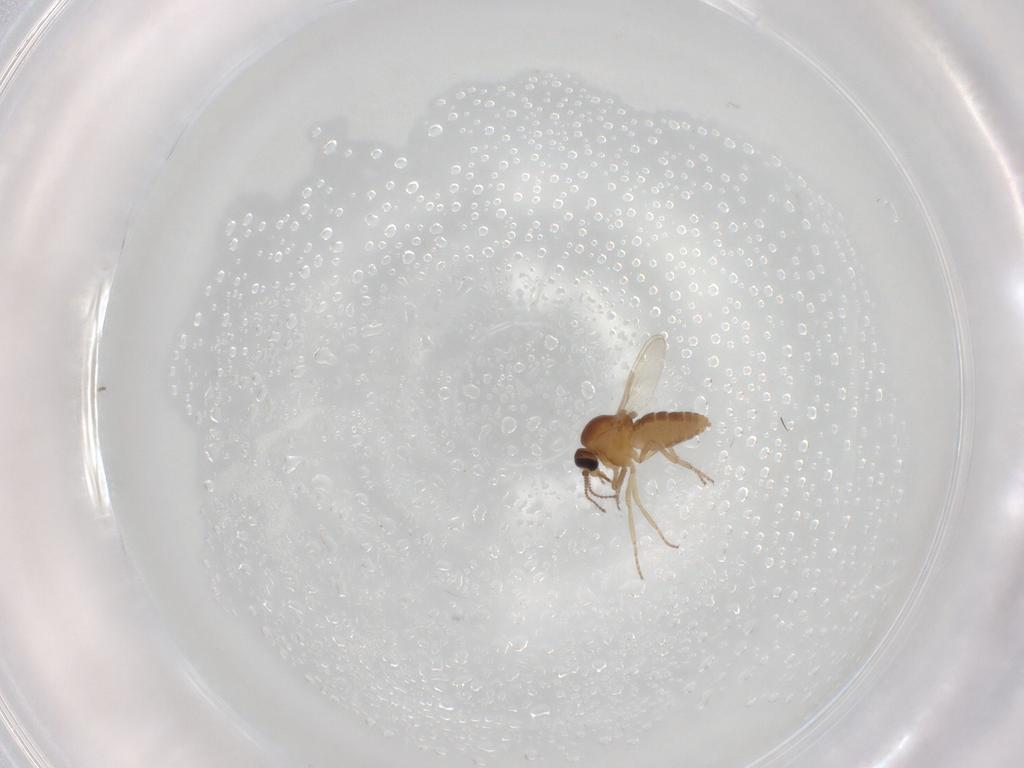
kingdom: Animalia
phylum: Arthropoda
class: Insecta
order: Diptera
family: Ceratopogonidae
